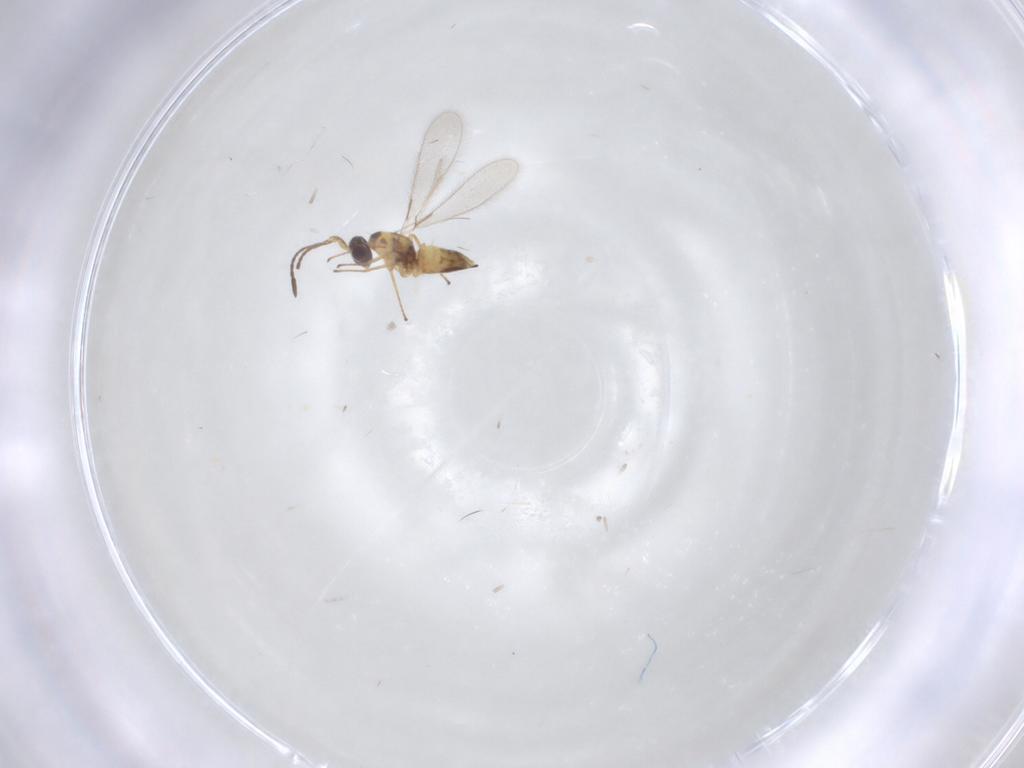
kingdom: Animalia
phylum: Arthropoda
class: Insecta
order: Hymenoptera
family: Mymaridae
